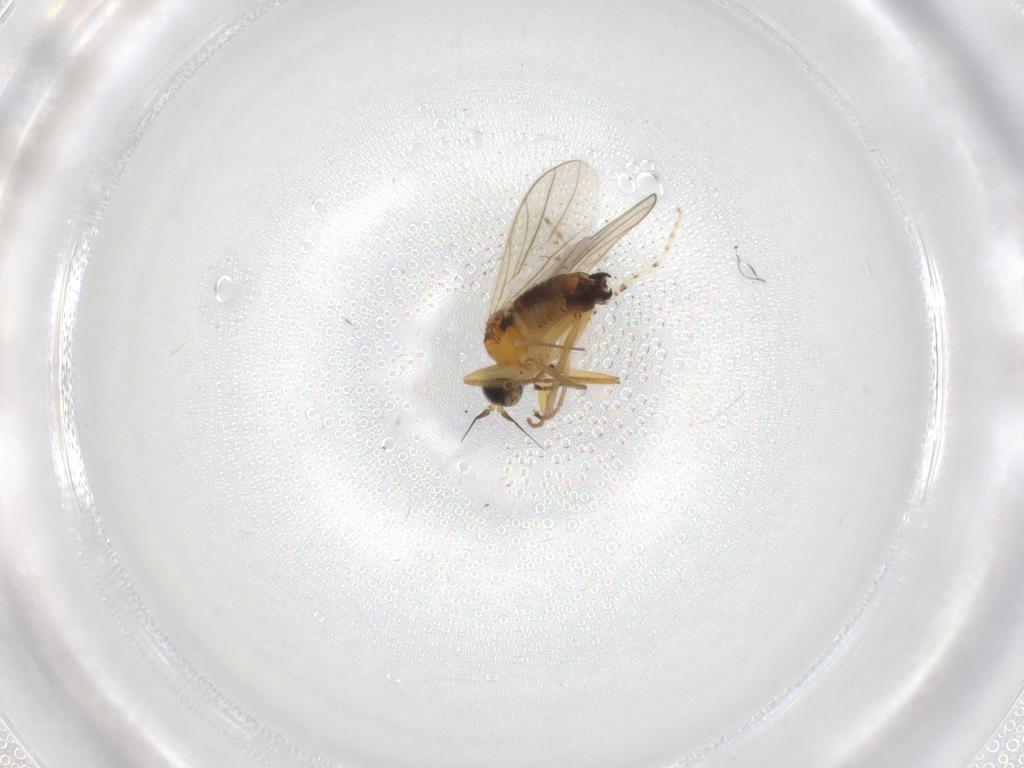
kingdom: Animalia
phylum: Arthropoda
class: Insecta
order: Diptera
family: Hybotidae
